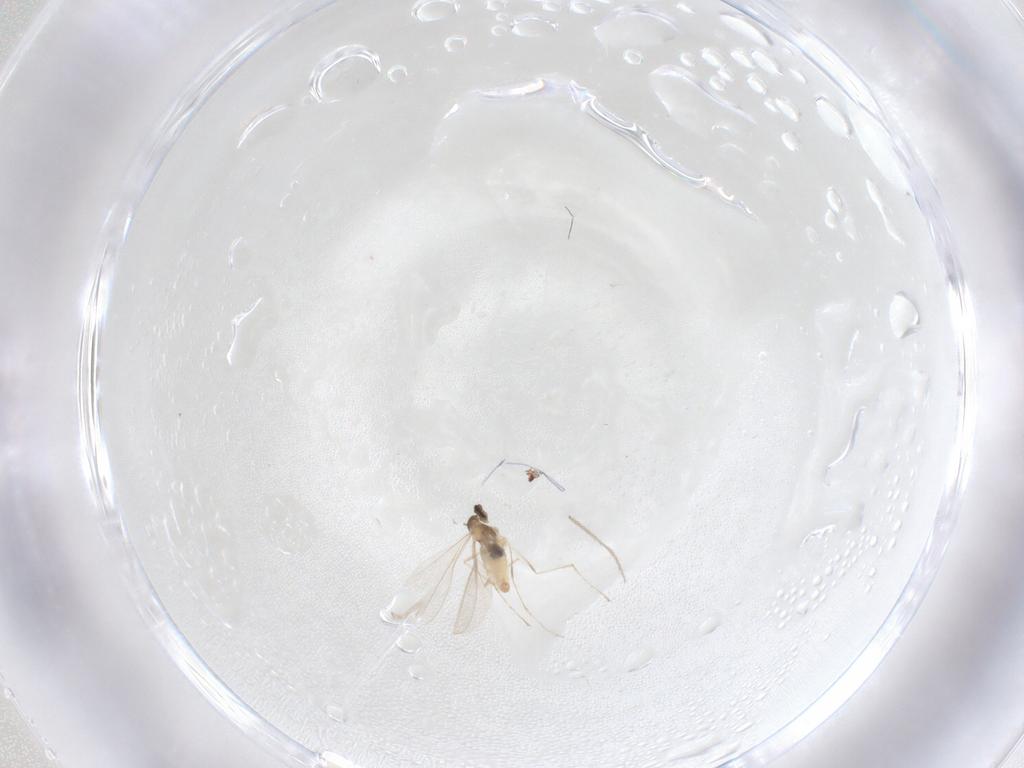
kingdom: Animalia
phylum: Arthropoda
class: Insecta
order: Diptera
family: Cecidomyiidae
